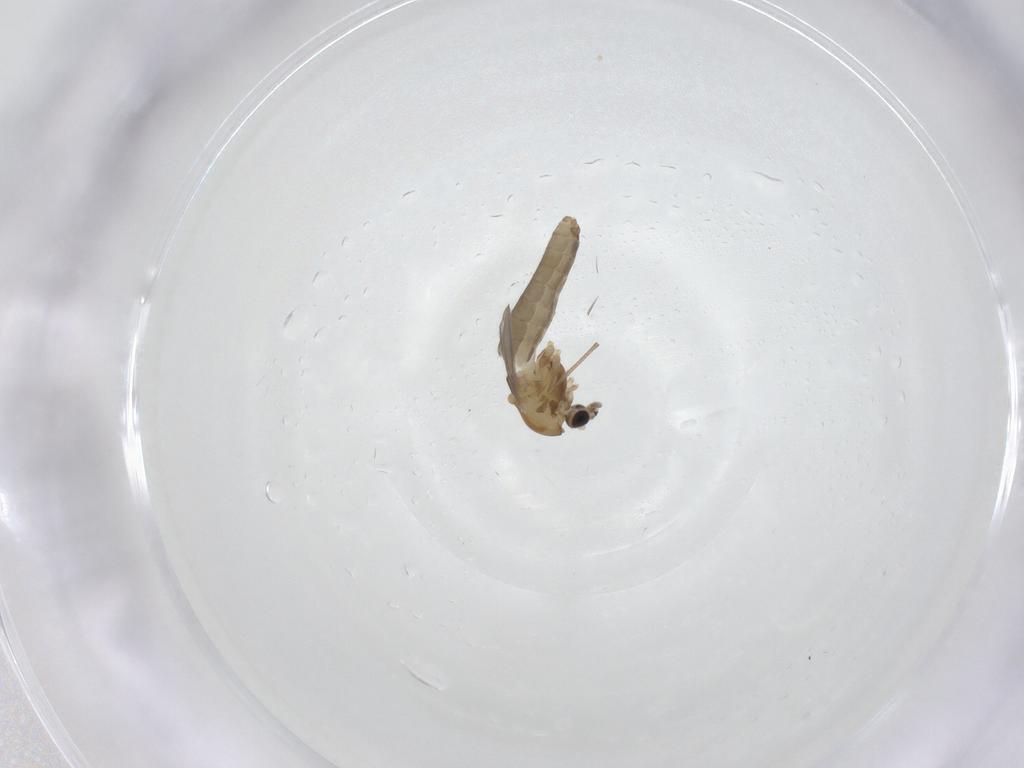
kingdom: Animalia
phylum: Arthropoda
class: Insecta
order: Diptera
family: Chironomidae
